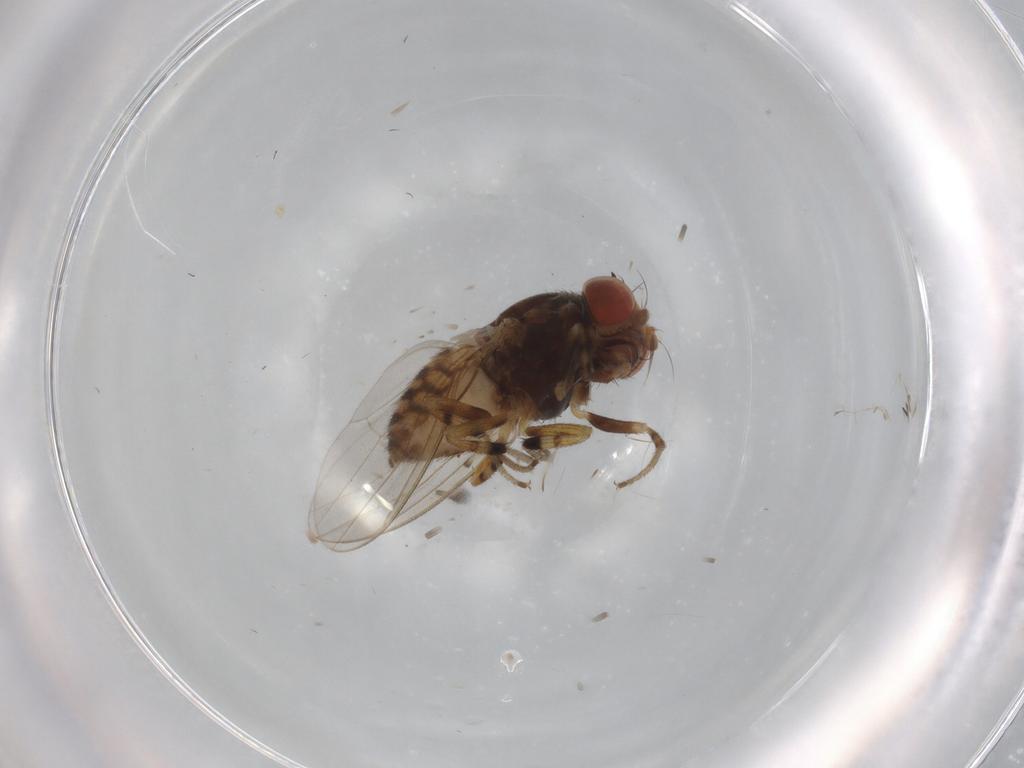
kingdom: Animalia
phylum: Arthropoda
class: Insecta
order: Diptera
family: Drosophilidae
